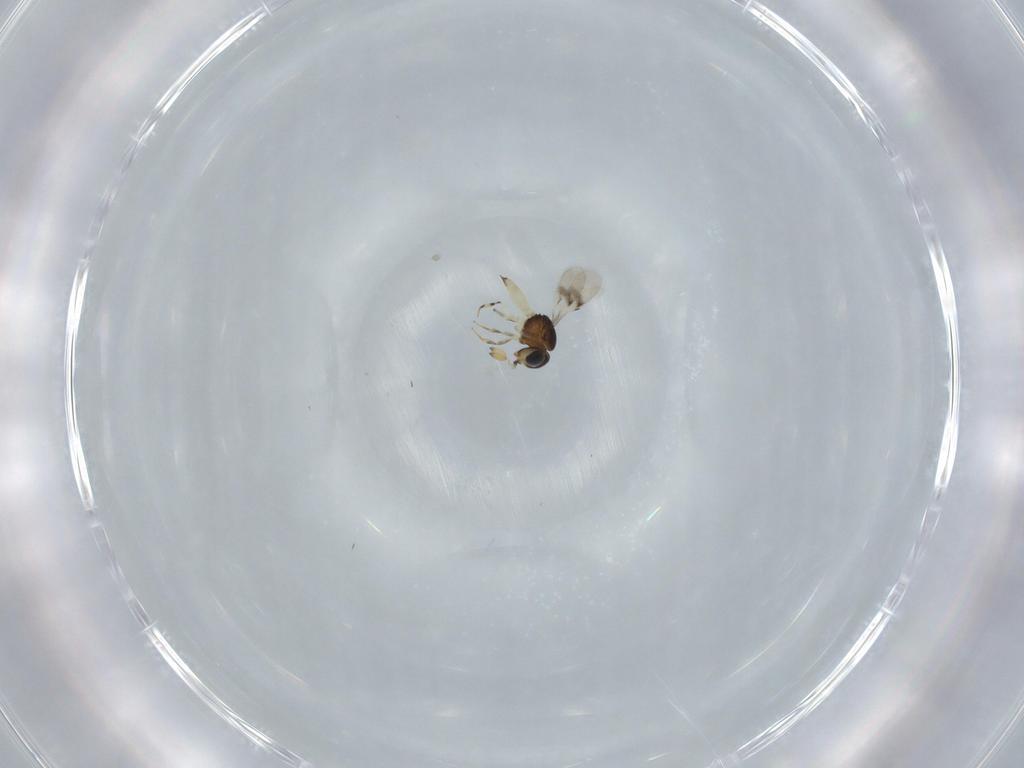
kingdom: Animalia
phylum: Arthropoda
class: Insecta
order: Hymenoptera
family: Scelionidae
